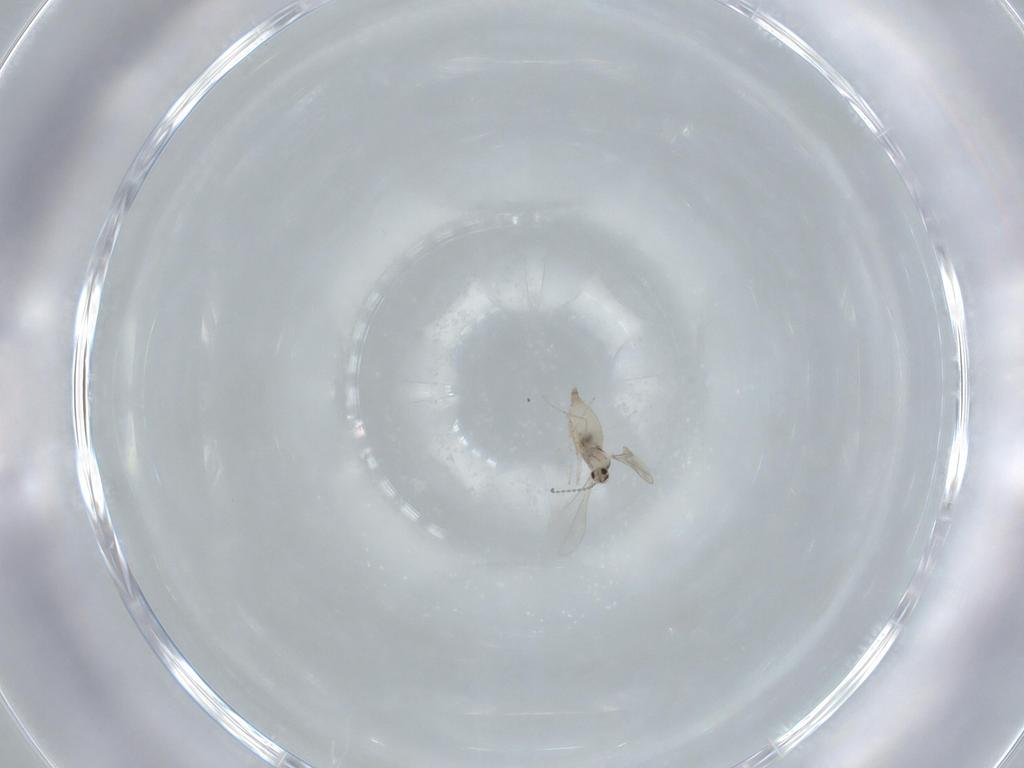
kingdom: Animalia
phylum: Arthropoda
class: Insecta
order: Diptera
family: Cecidomyiidae
